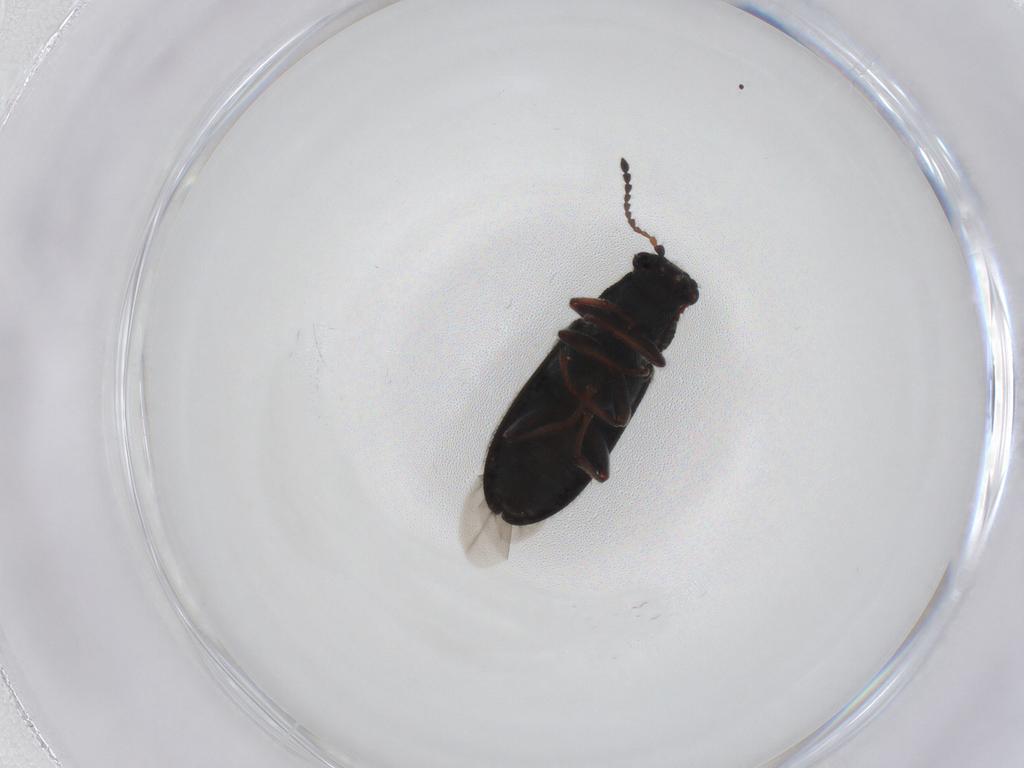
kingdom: Animalia
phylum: Arthropoda
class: Insecta
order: Coleoptera
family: Melyridae
